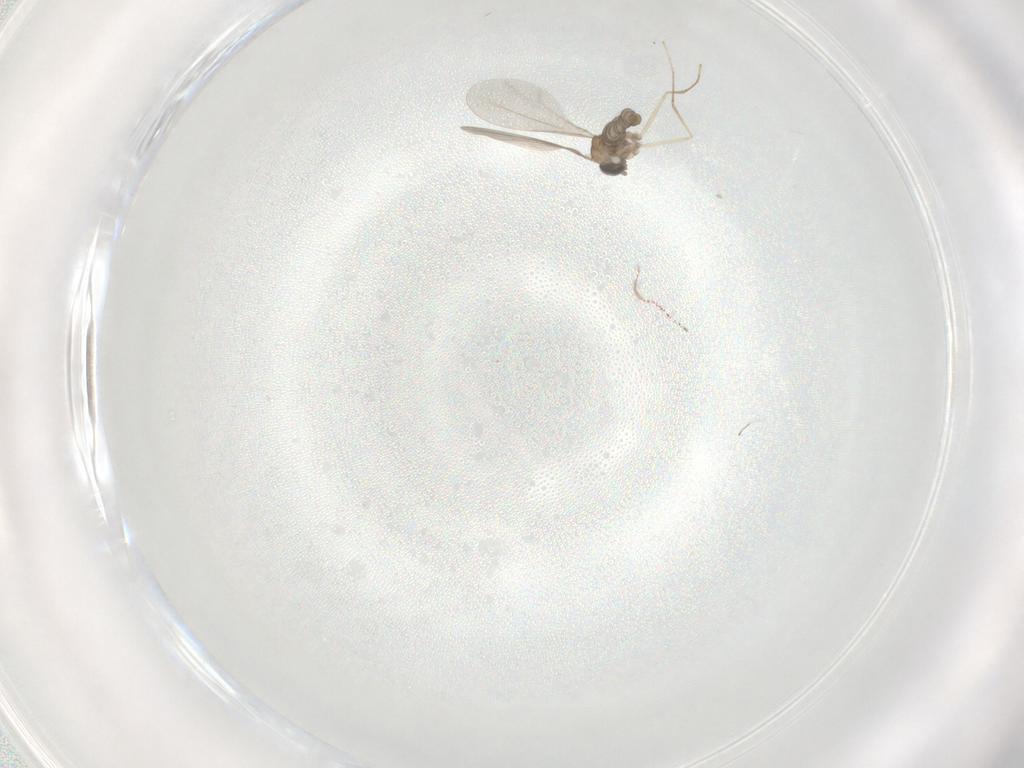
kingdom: Animalia
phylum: Arthropoda
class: Insecta
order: Diptera
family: Cecidomyiidae
